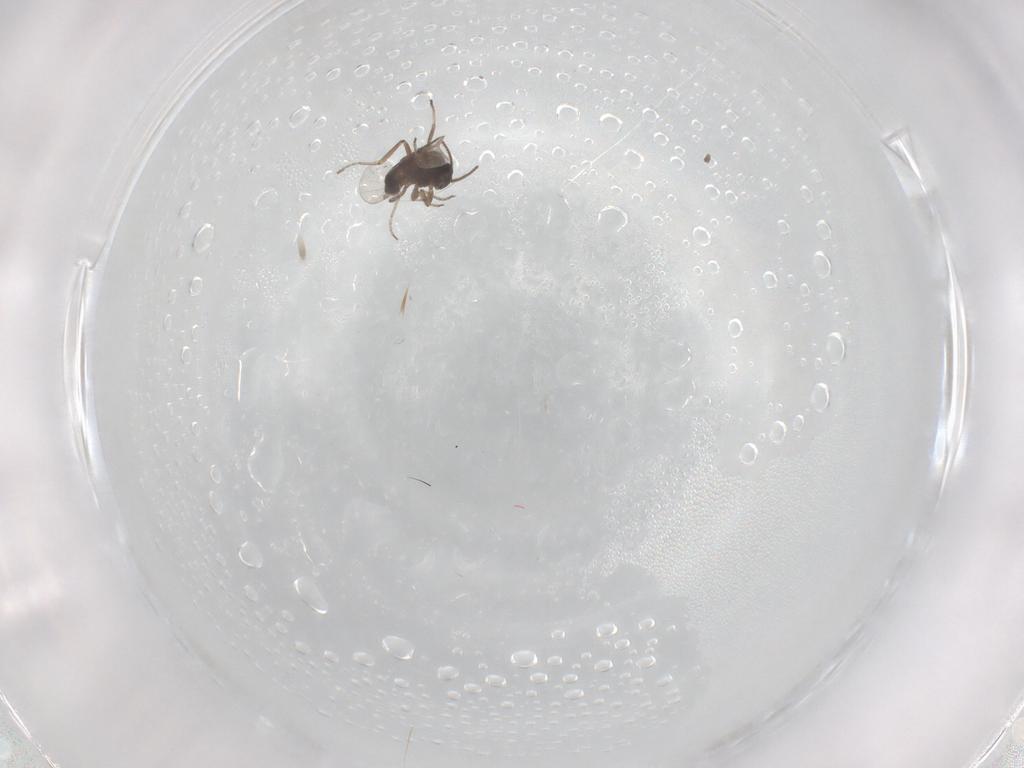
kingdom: Animalia
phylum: Arthropoda
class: Insecta
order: Diptera
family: Ceratopogonidae
